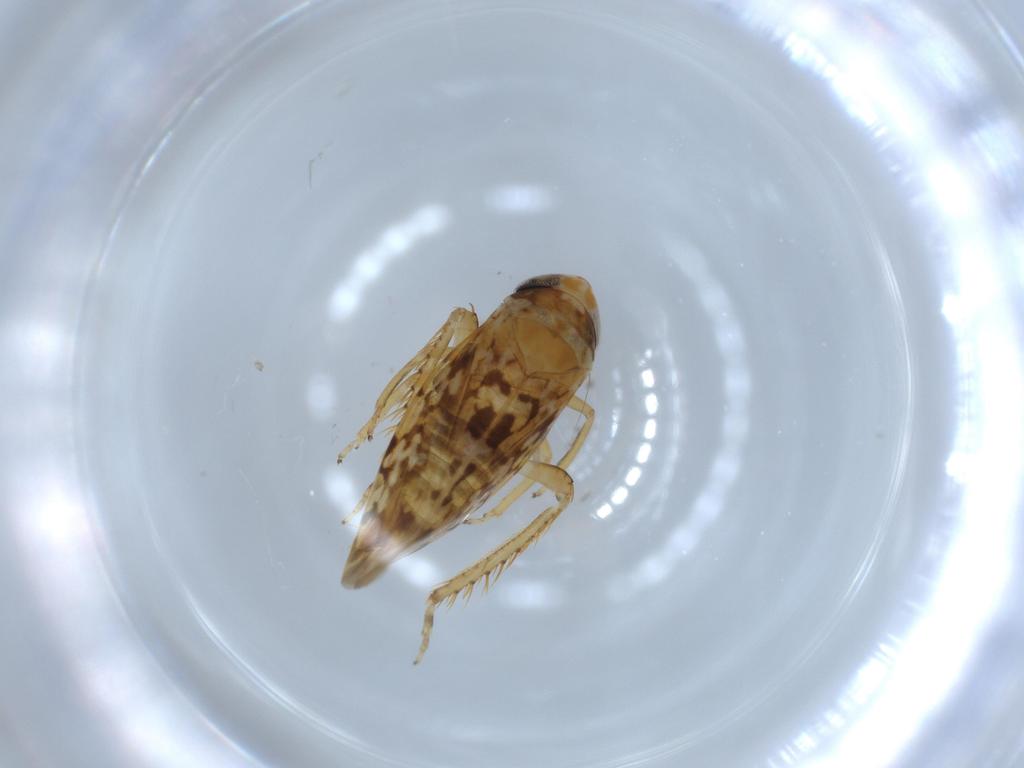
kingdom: Animalia
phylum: Arthropoda
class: Insecta
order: Hemiptera
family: Cicadellidae
